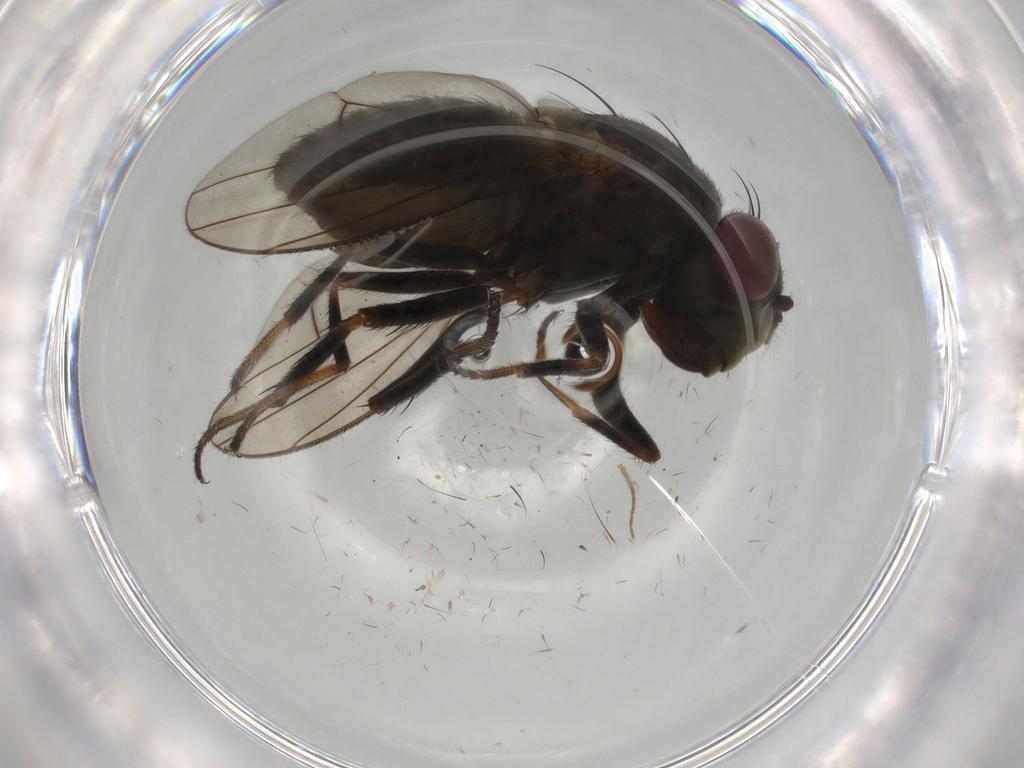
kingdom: Animalia
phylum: Arthropoda
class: Insecta
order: Diptera
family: Ephydridae
